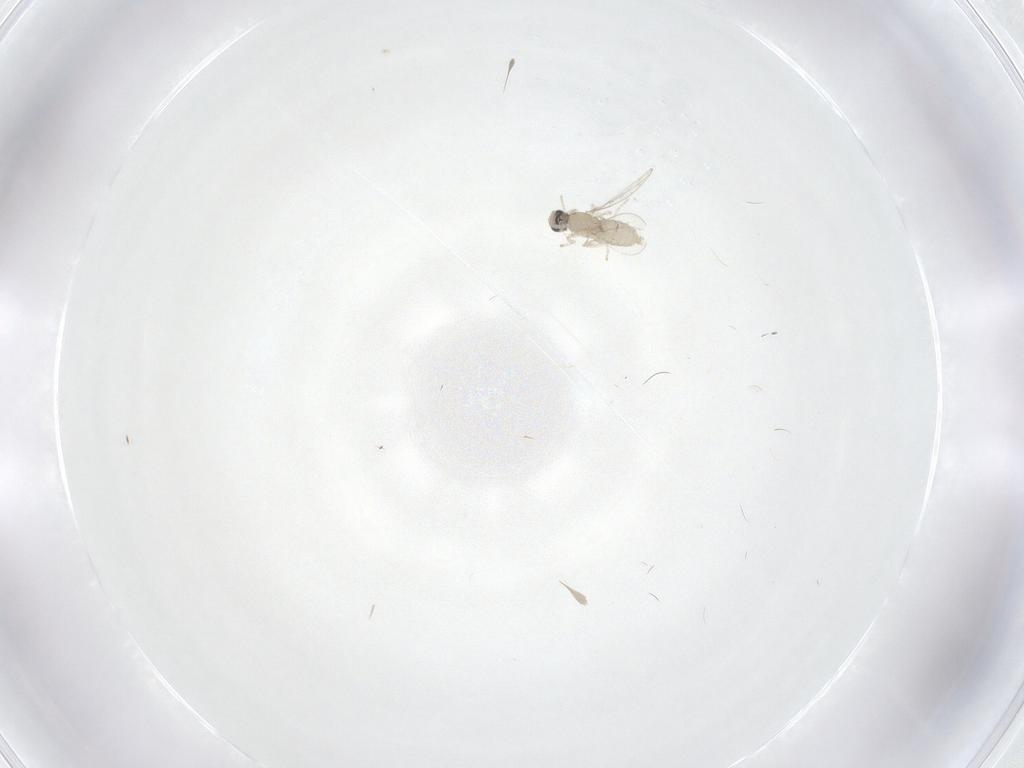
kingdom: Animalia
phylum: Arthropoda
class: Insecta
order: Diptera
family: Cecidomyiidae
